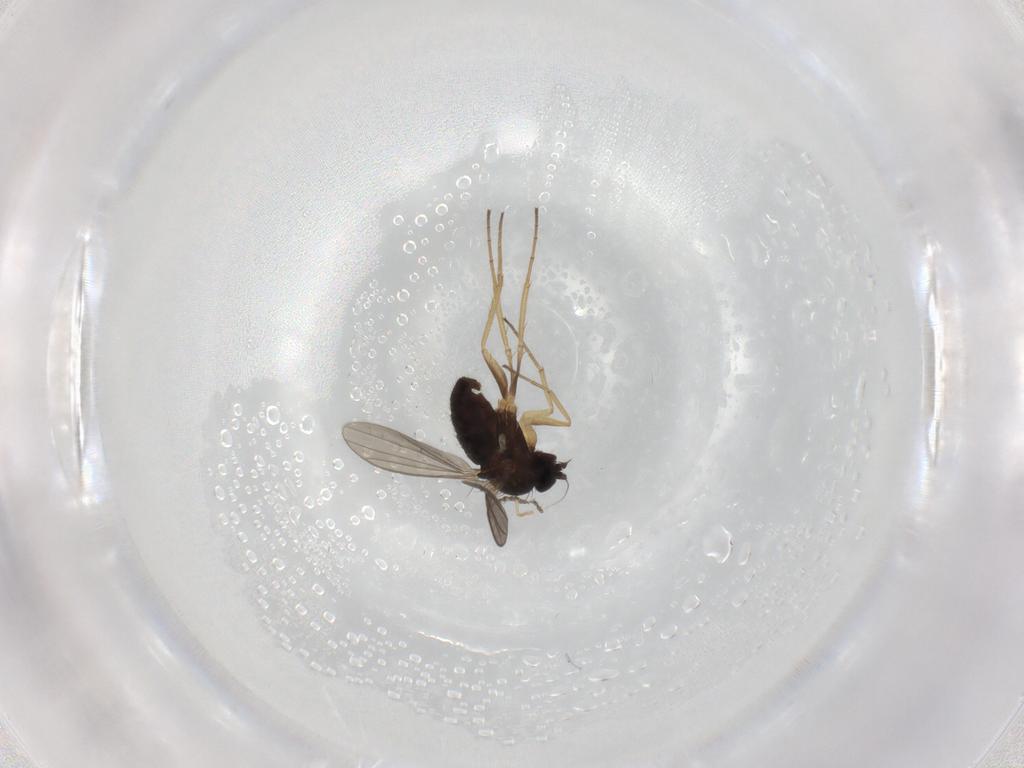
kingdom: Animalia
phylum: Arthropoda
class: Insecta
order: Diptera
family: Dolichopodidae
